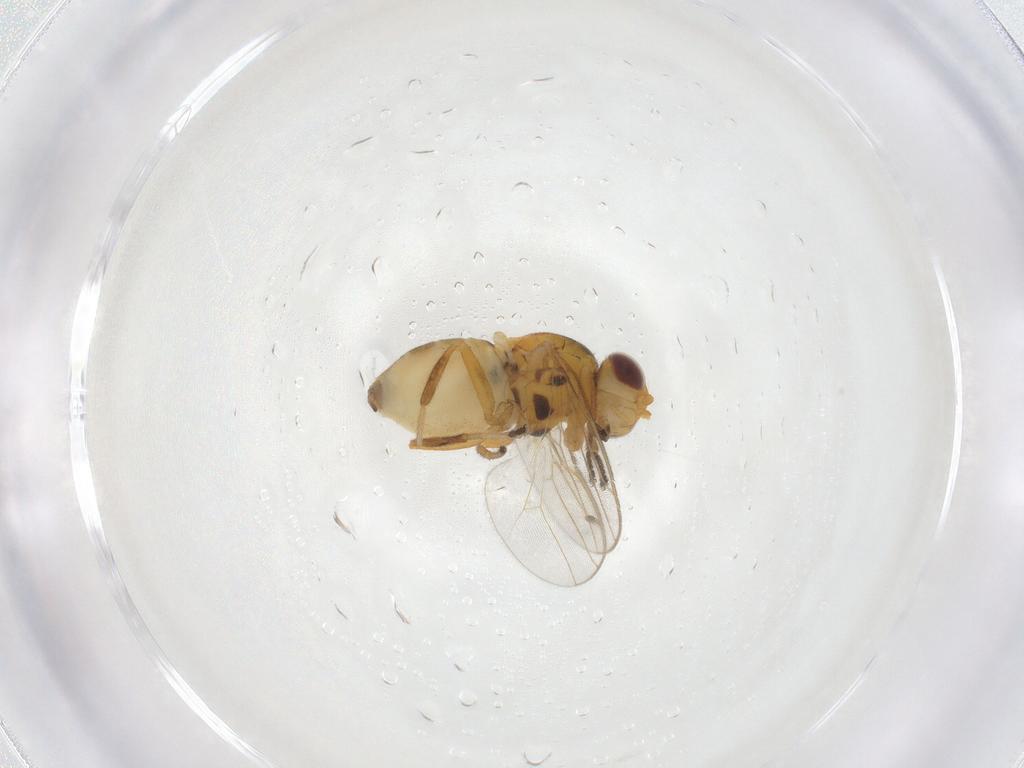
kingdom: Animalia
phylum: Arthropoda
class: Insecta
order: Diptera
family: Chloropidae
